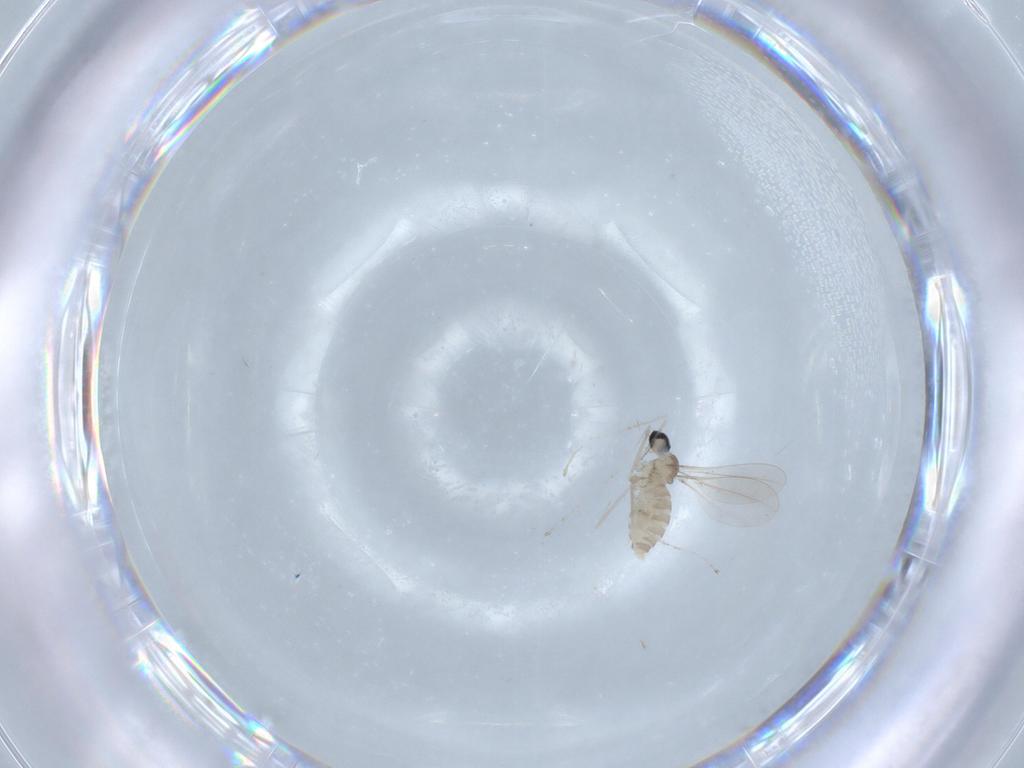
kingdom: Animalia
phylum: Arthropoda
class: Insecta
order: Diptera
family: Cecidomyiidae
